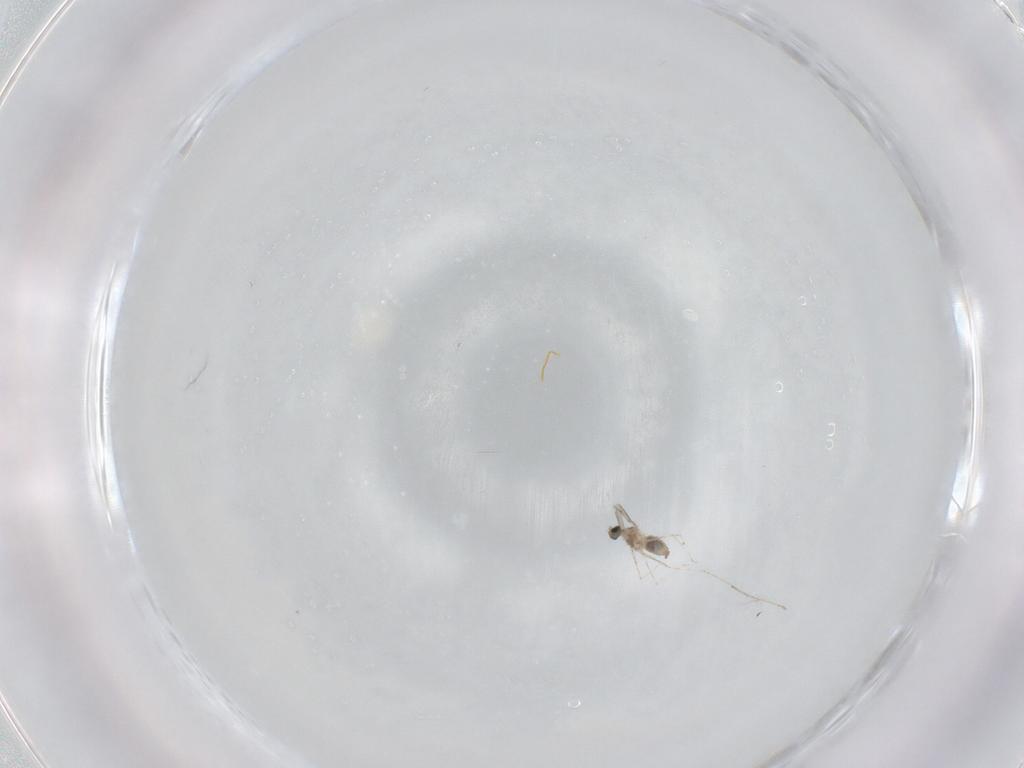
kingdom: Animalia
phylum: Arthropoda
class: Insecta
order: Diptera
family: Cecidomyiidae
